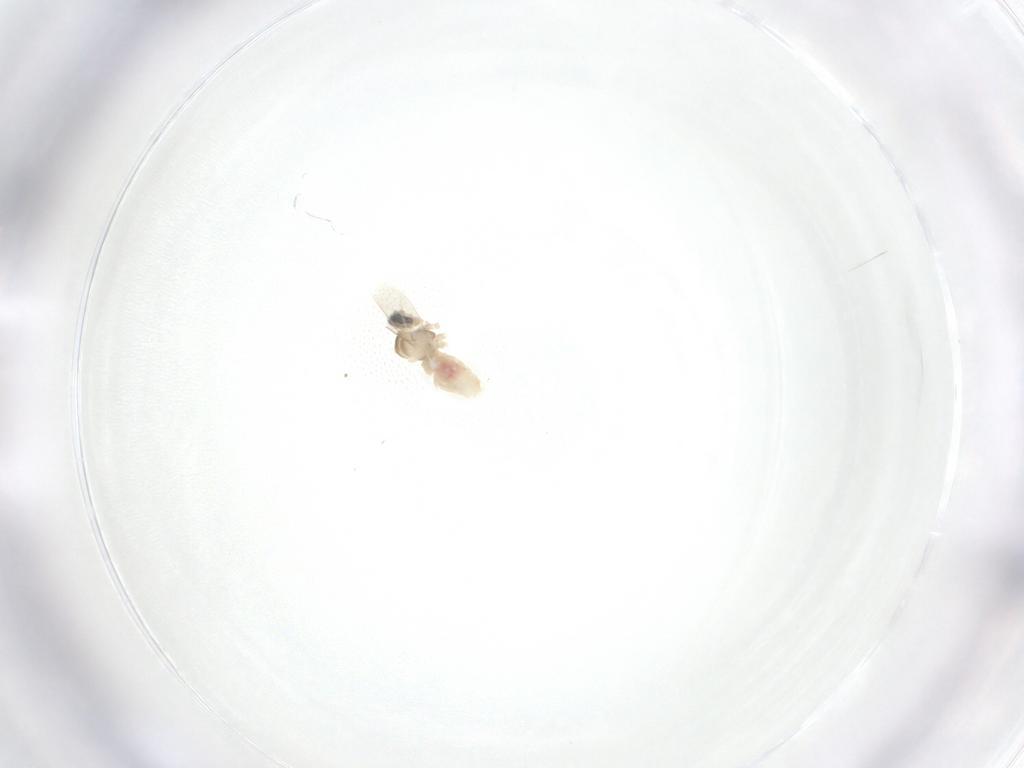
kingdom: Animalia
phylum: Arthropoda
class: Insecta
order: Diptera
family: Cecidomyiidae
